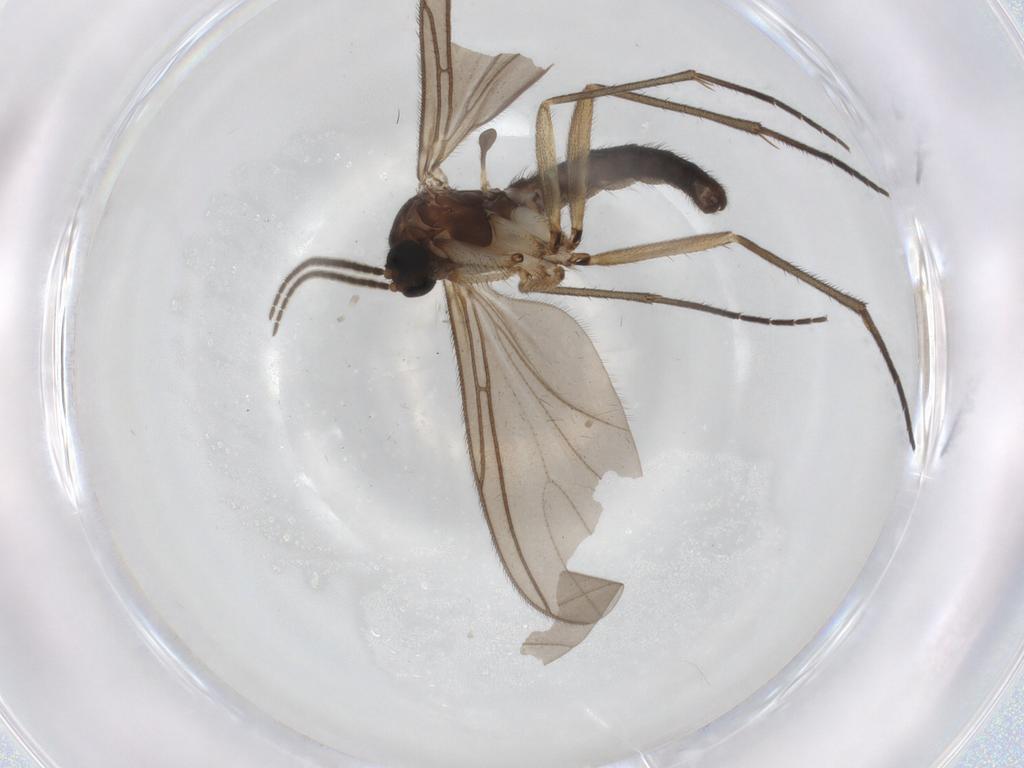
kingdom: Animalia
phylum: Arthropoda
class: Insecta
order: Diptera
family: Sciaridae
